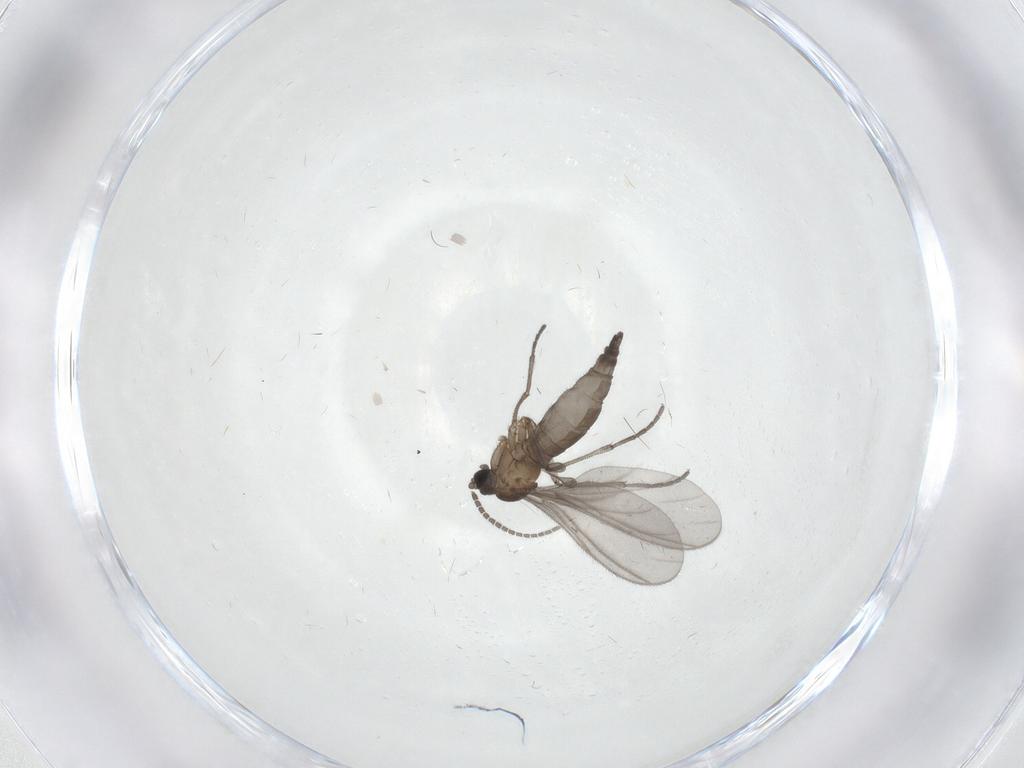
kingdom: Animalia
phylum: Arthropoda
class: Insecta
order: Diptera
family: Sciaridae
